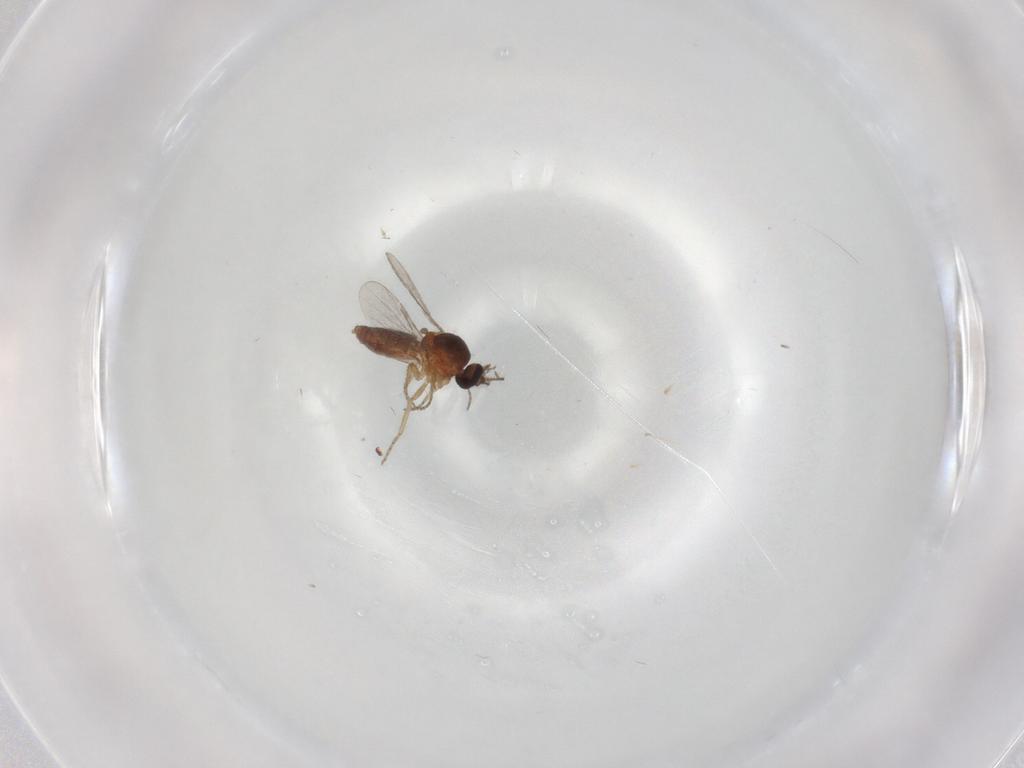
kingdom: Animalia
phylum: Arthropoda
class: Insecta
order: Diptera
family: Ceratopogonidae
